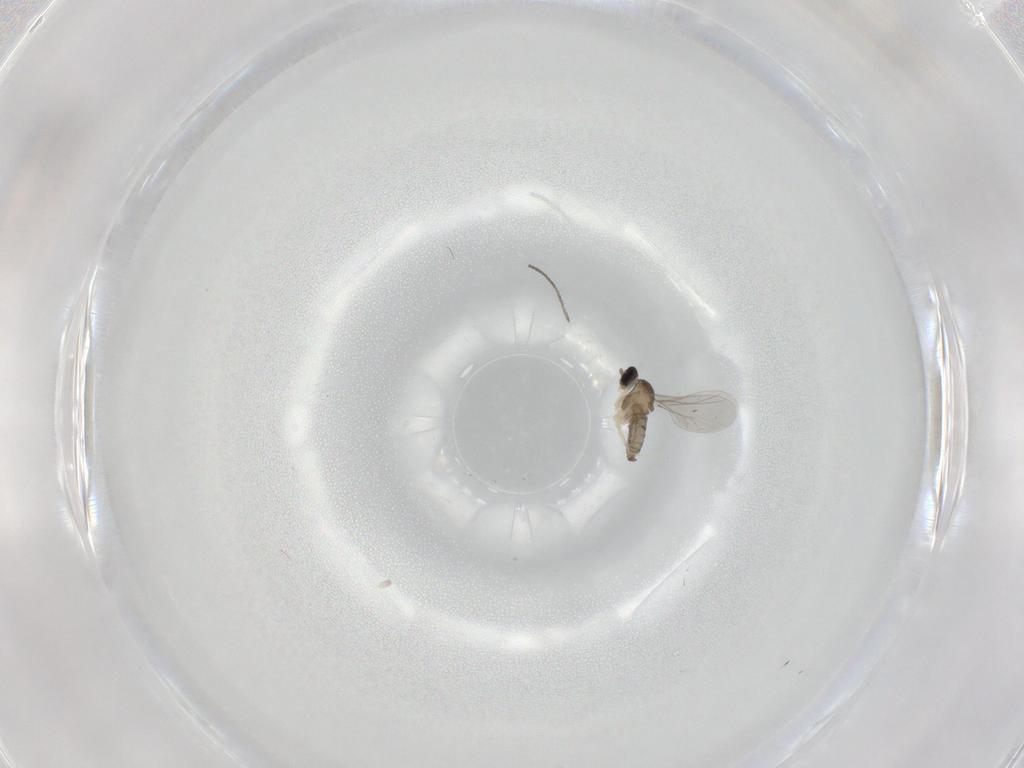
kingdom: Animalia
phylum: Arthropoda
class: Insecta
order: Diptera
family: Cecidomyiidae
